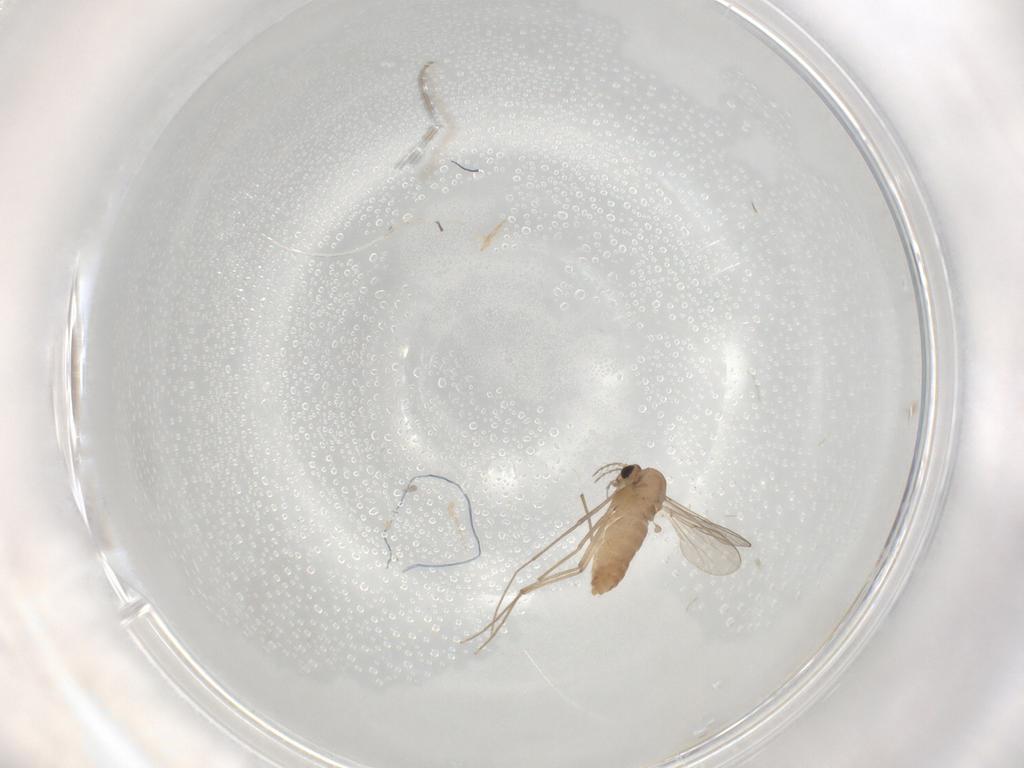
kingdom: Animalia
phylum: Arthropoda
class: Insecta
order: Diptera
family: Chironomidae
